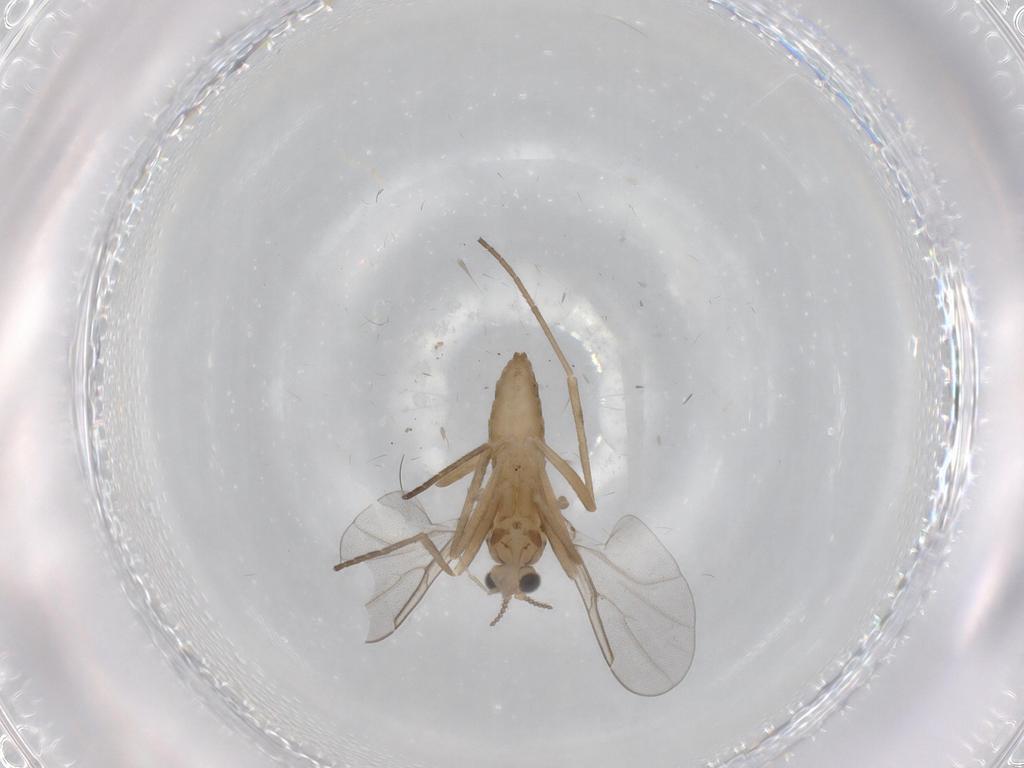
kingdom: Animalia
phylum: Arthropoda
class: Insecta
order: Diptera
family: Cecidomyiidae
